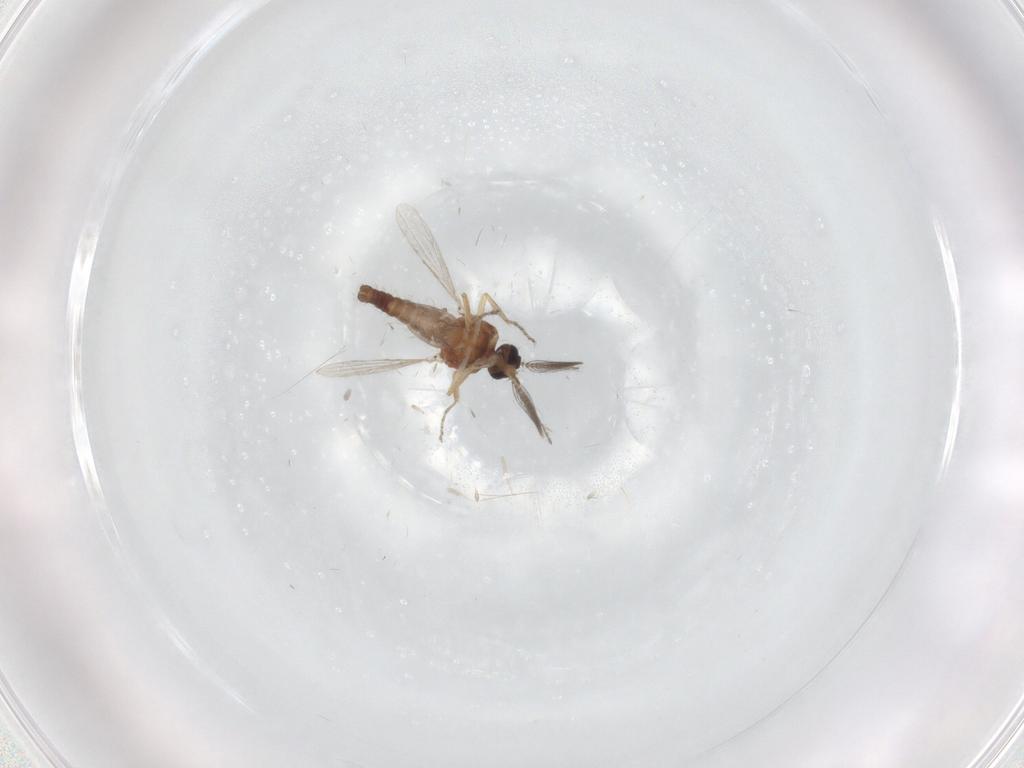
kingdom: Animalia
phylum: Arthropoda
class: Insecta
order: Diptera
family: Ceratopogonidae
